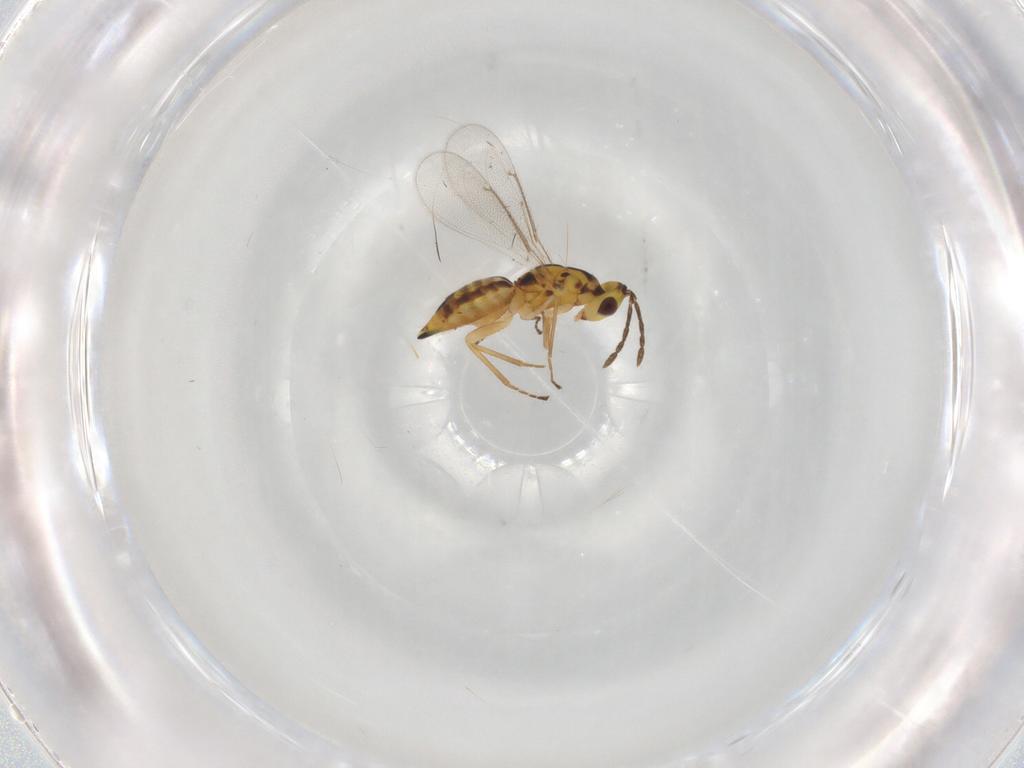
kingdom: Animalia
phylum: Arthropoda
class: Insecta
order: Hymenoptera
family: Eulophidae
